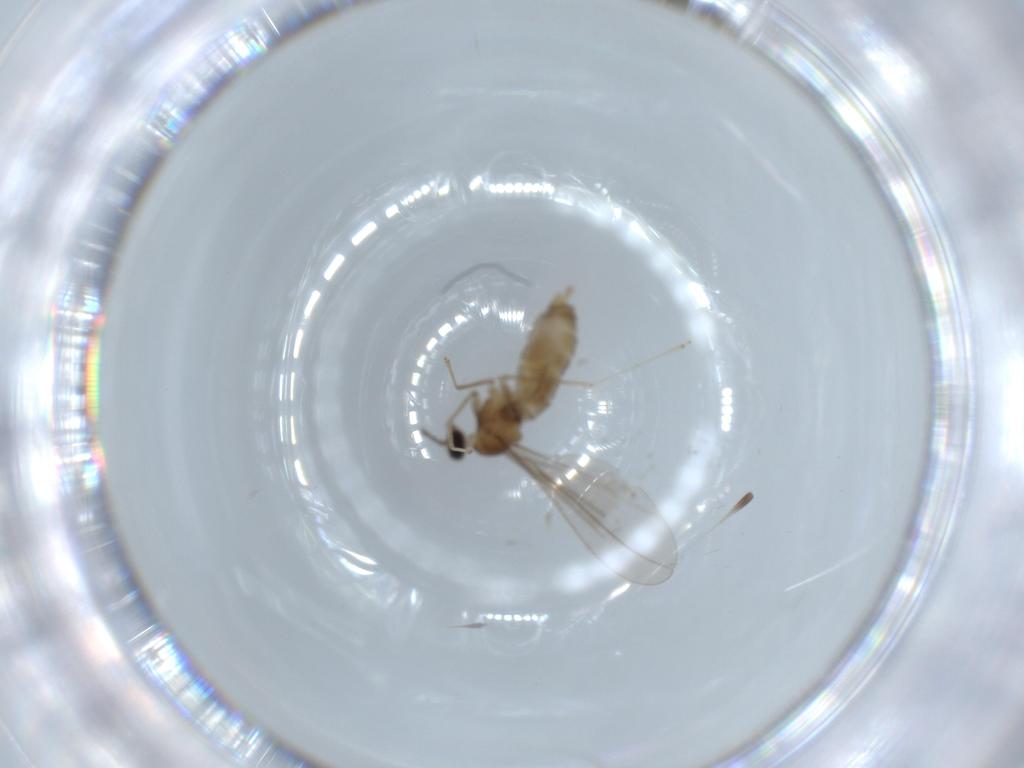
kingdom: Animalia
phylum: Arthropoda
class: Insecta
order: Diptera
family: Cecidomyiidae
